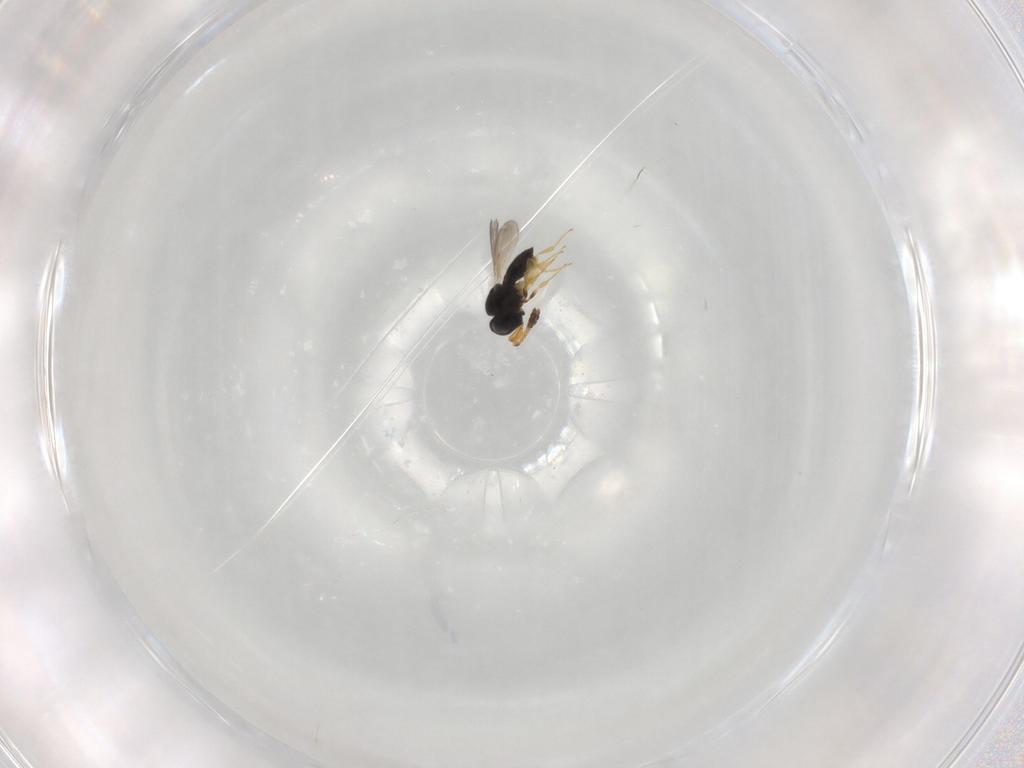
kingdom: Animalia
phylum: Arthropoda
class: Insecta
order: Hymenoptera
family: Scelionidae
